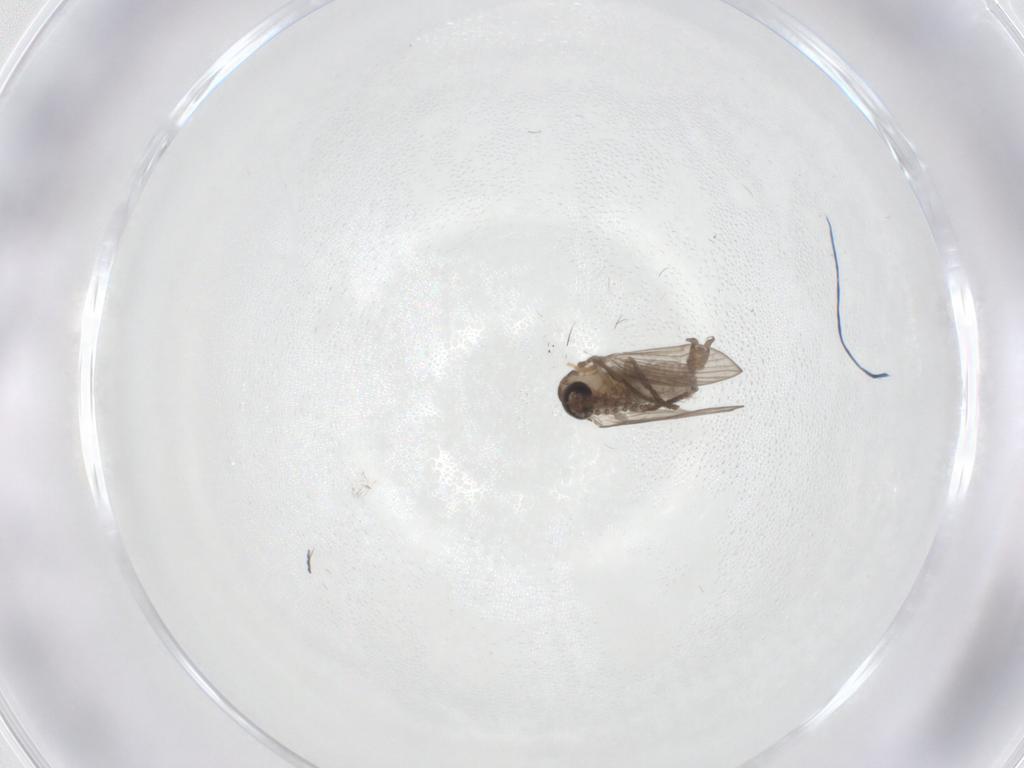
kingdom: Animalia
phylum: Arthropoda
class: Insecta
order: Diptera
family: Psychodidae
